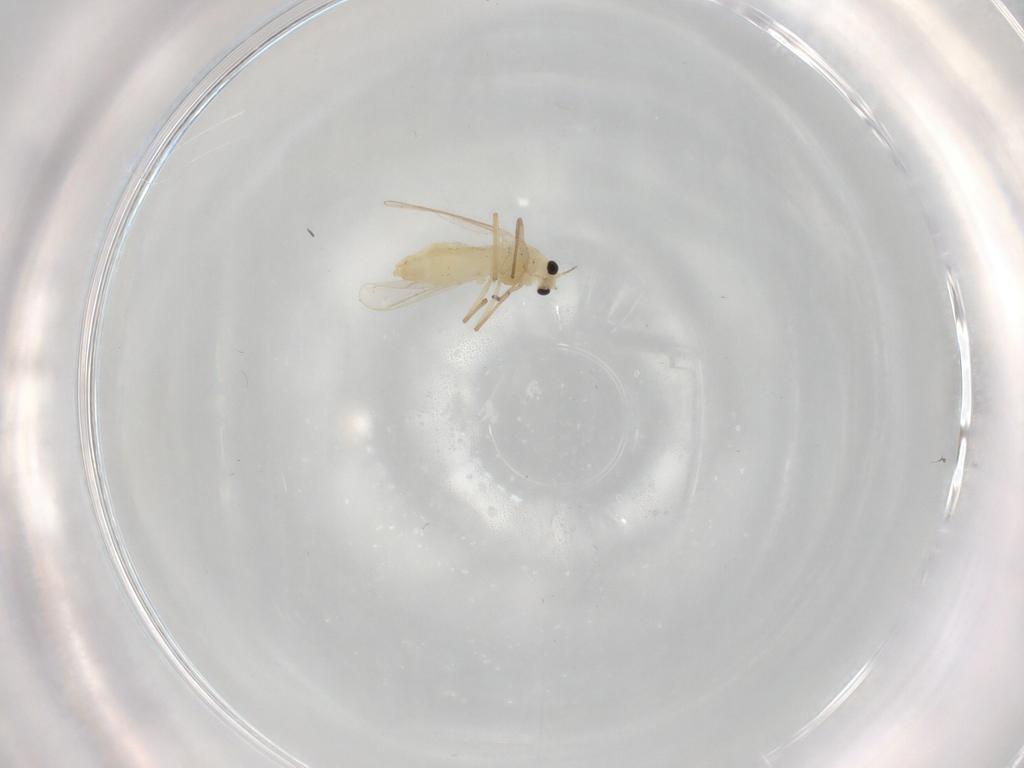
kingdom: Animalia
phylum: Arthropoda
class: Insecta
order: Diptera
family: Chironomidae
